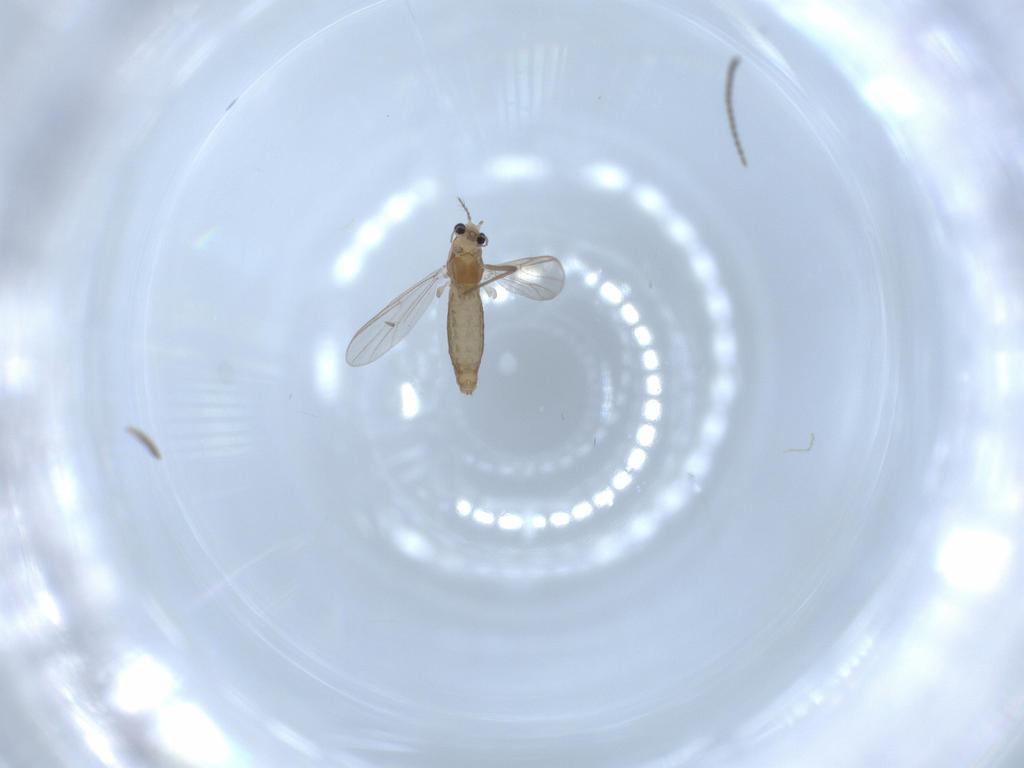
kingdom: Animalia
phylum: Arthropoda
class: Insecta
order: Diptera
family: Chironomidae
